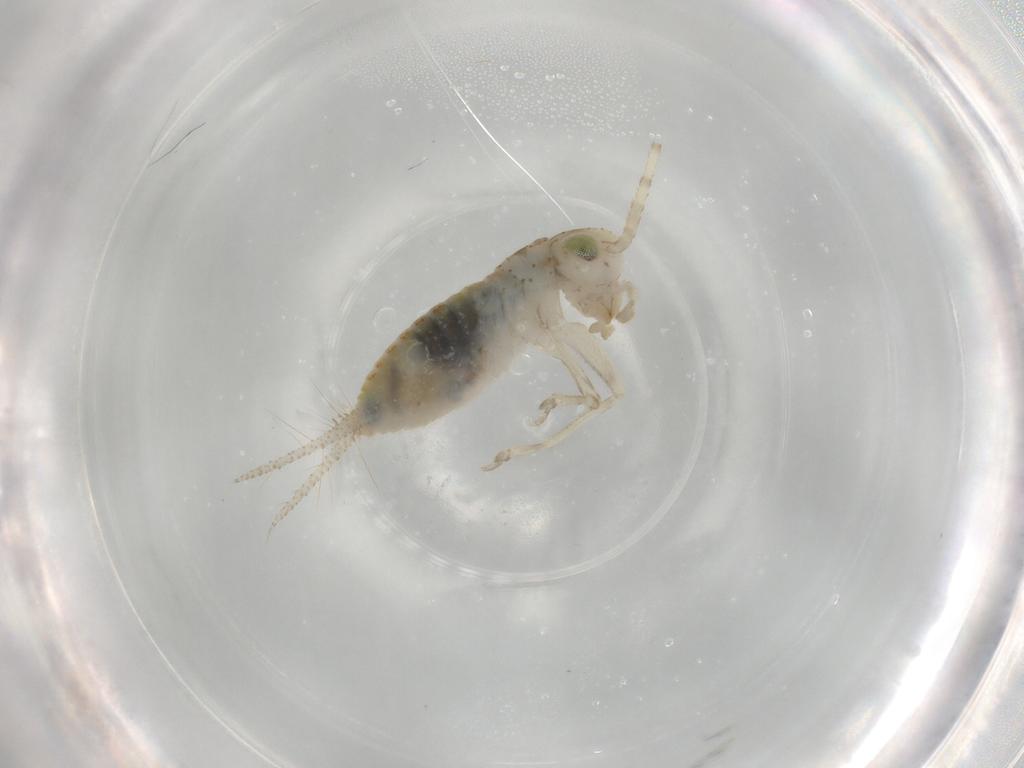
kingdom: Animalia
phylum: Arthropoda
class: Insecta
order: Orthoptera
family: Trigonidiidae
